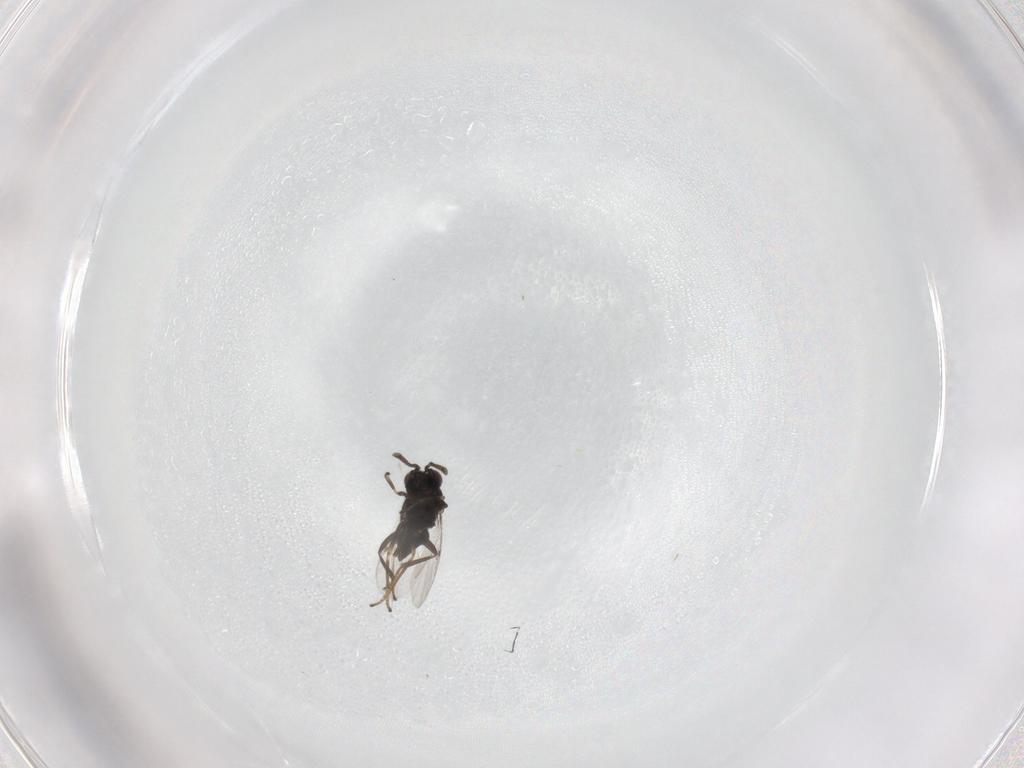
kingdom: Animalia
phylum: Arthropoda
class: Insecta
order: Hymenoptera
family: Encyrtidae
